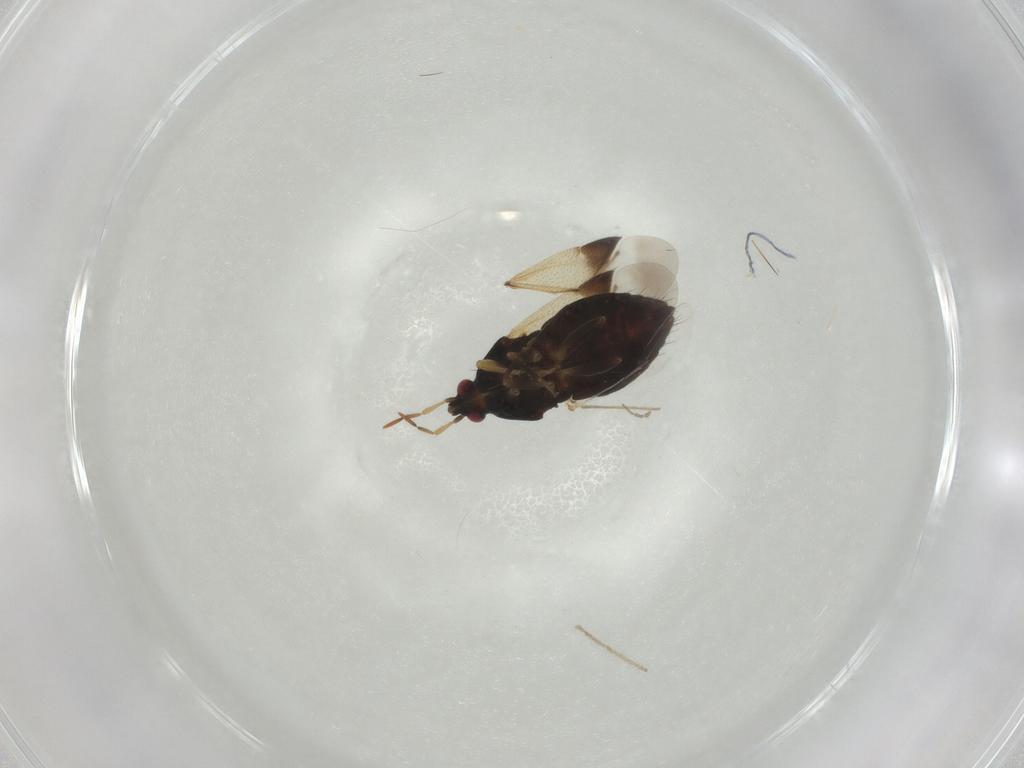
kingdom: Animalia
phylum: Arthropoda
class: Insecta
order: Hemiptera
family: Anthocoridae
